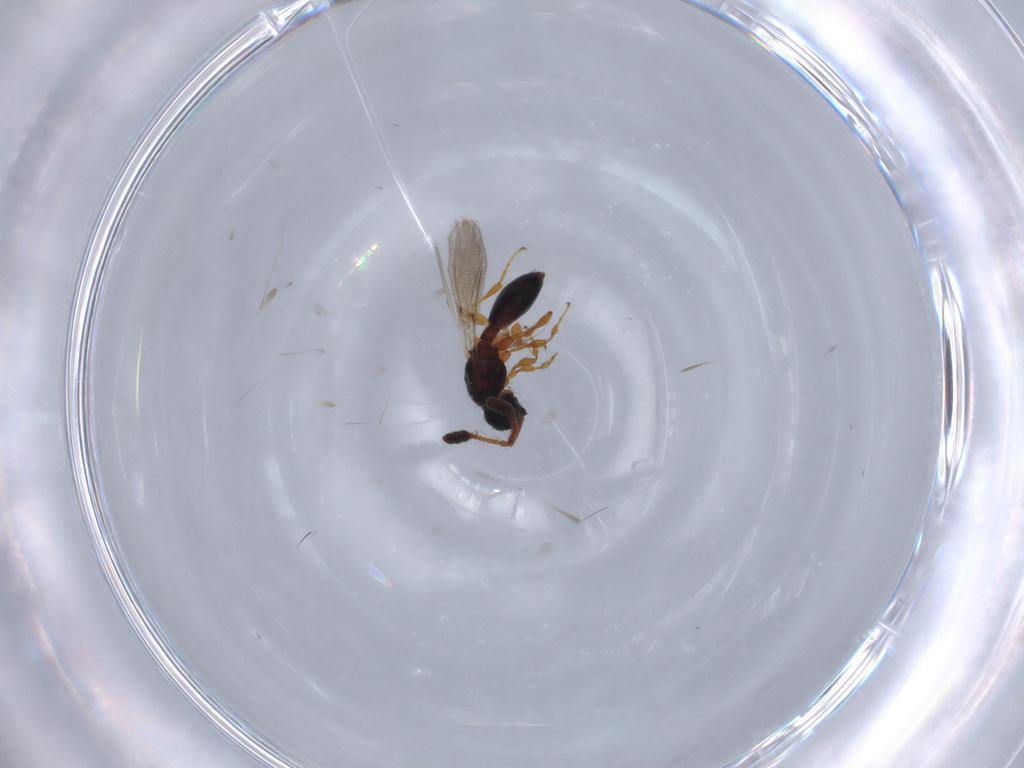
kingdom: Animalia
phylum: Arthropoda
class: Insecta
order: Hymenoptera
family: Diapriidae
